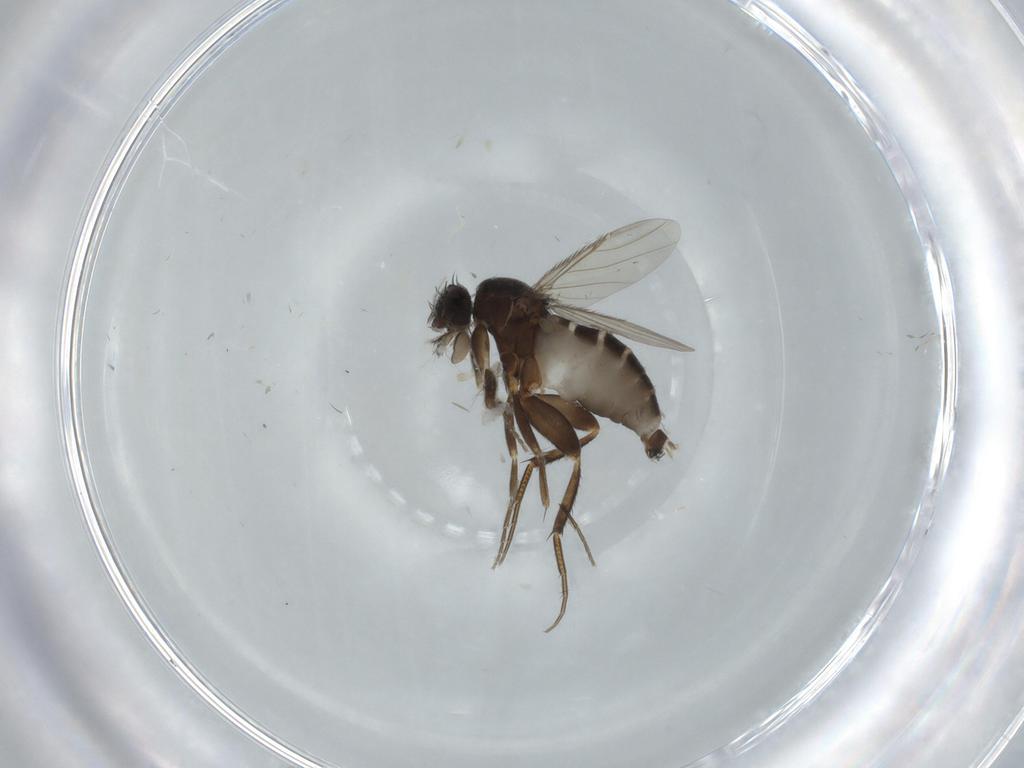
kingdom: Animalia
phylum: Arthropoda
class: Insecta
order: Diptera
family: Phoridae
